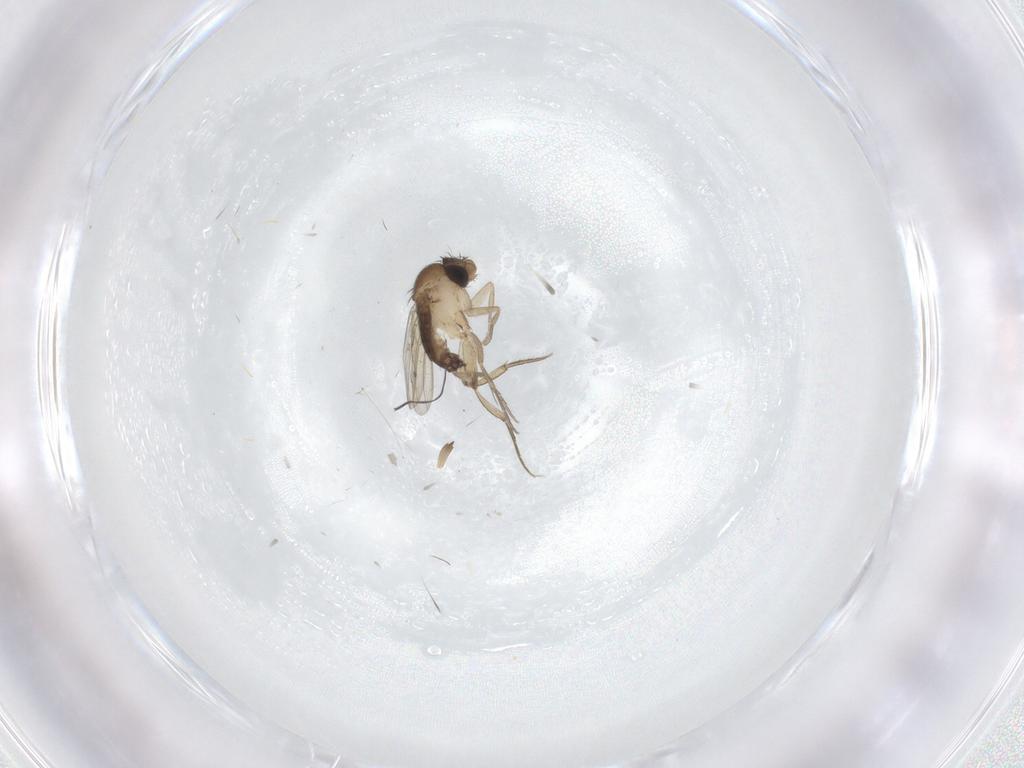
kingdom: Animalia
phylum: Arthropoda
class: Insecta
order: Diptera
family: Phoridae
